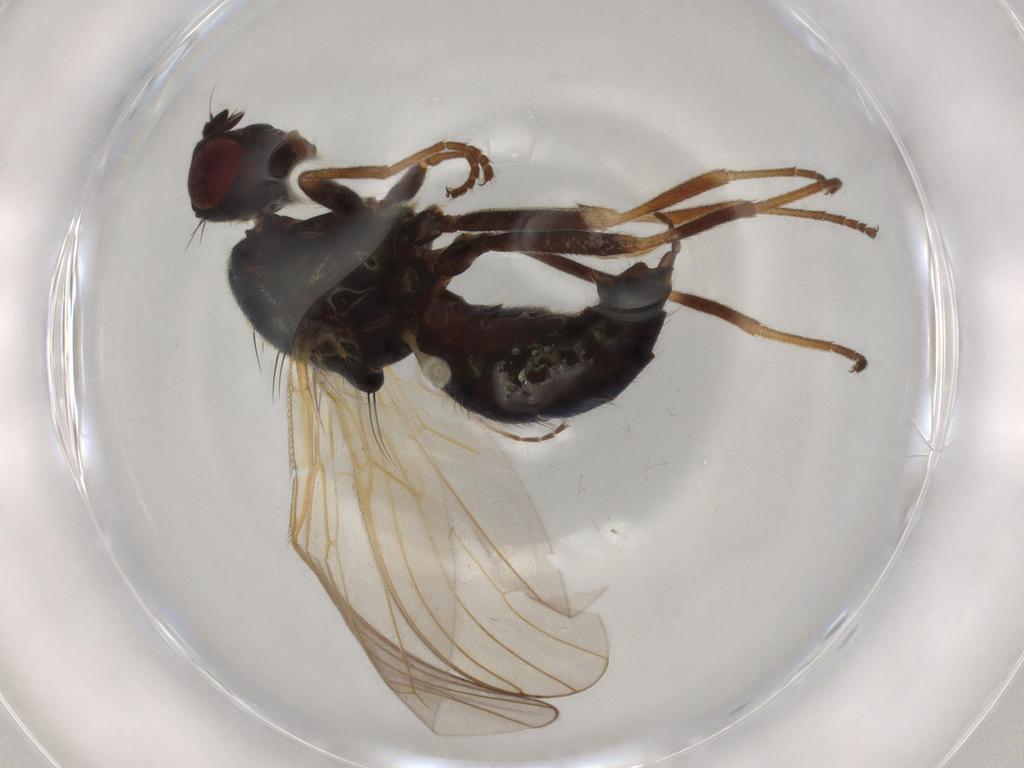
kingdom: Animalia
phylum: Arthropoda
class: Insecta
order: Diptera
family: Hybotidae
